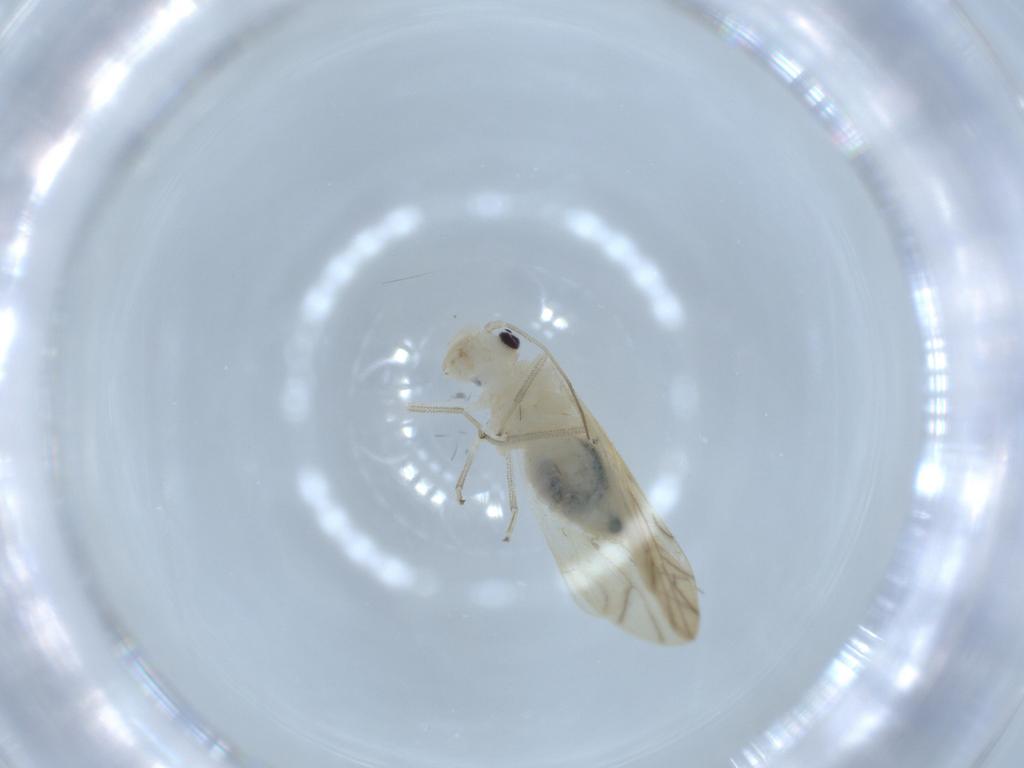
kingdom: Animalia
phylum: Arthropoda
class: Insecta
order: Psocodea
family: Caeciliusidae
